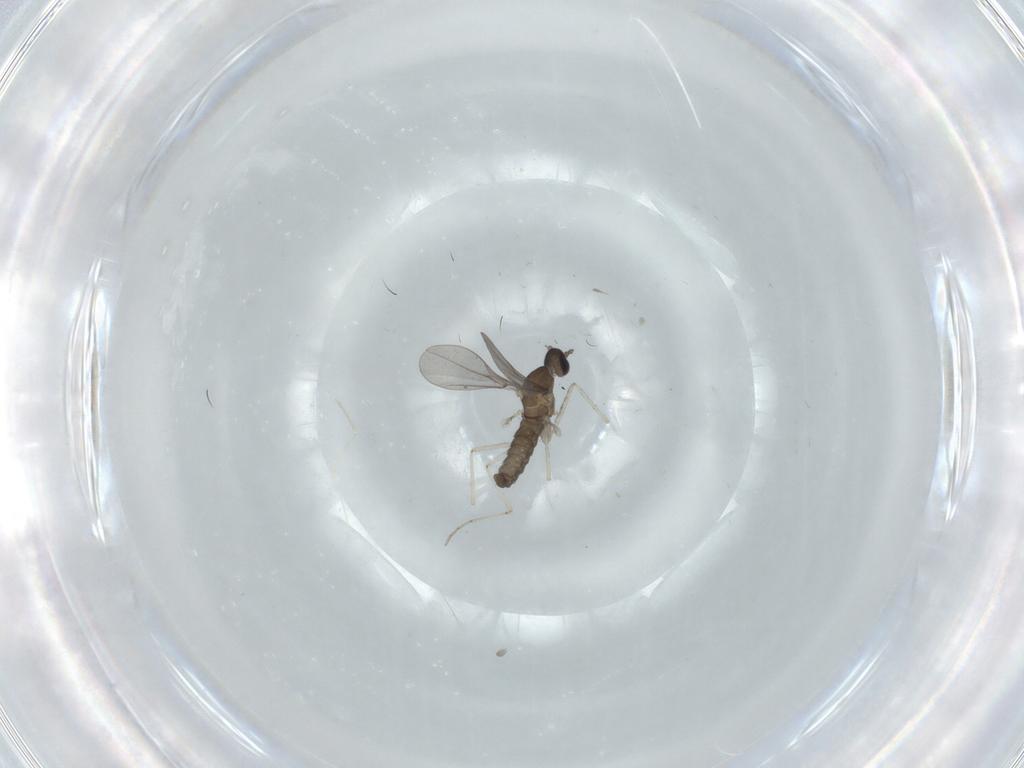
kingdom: Animalia
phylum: Arthropoda
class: Insecta
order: Diptera
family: Cecidomyiidae
